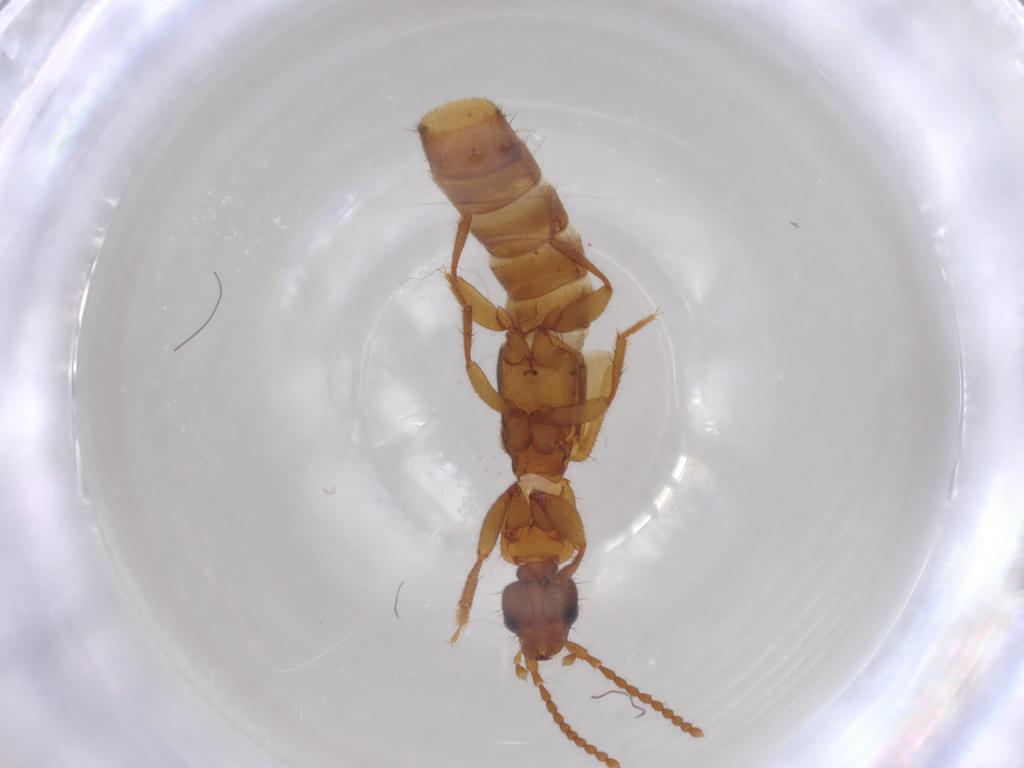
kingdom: Animalia
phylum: Arthropoda
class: Insecta
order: Coleoptera
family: Staphylinidae
